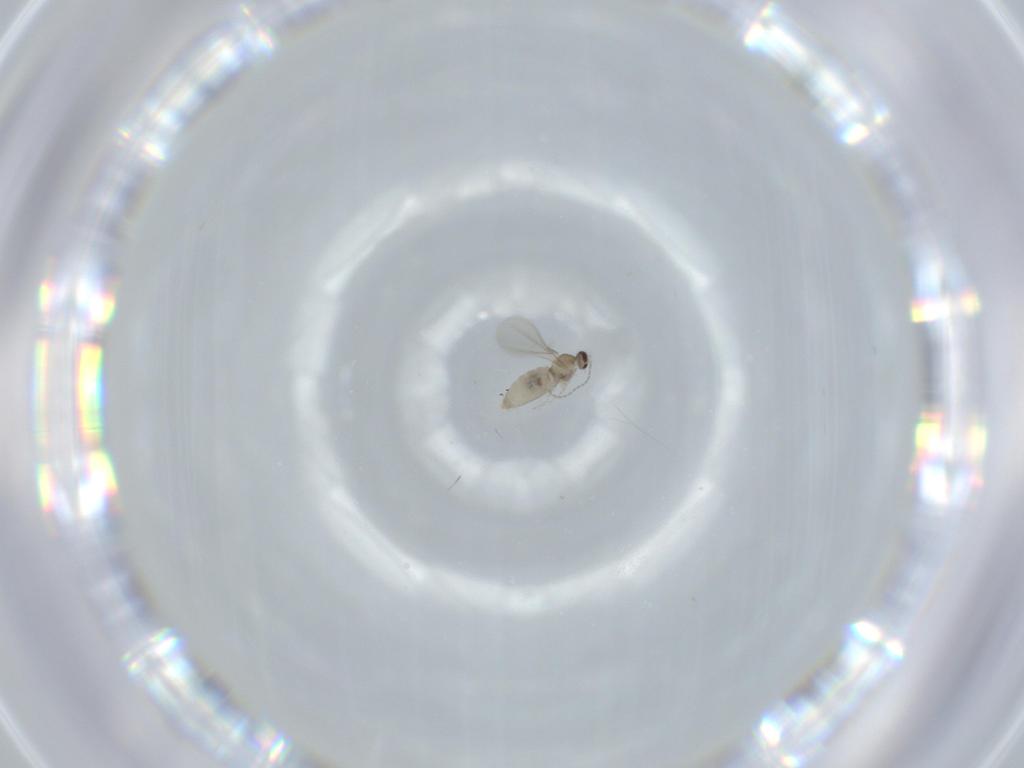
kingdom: Animalia
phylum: Arthropoda
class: Insecta
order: Diptera
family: Cecidomyiidae
